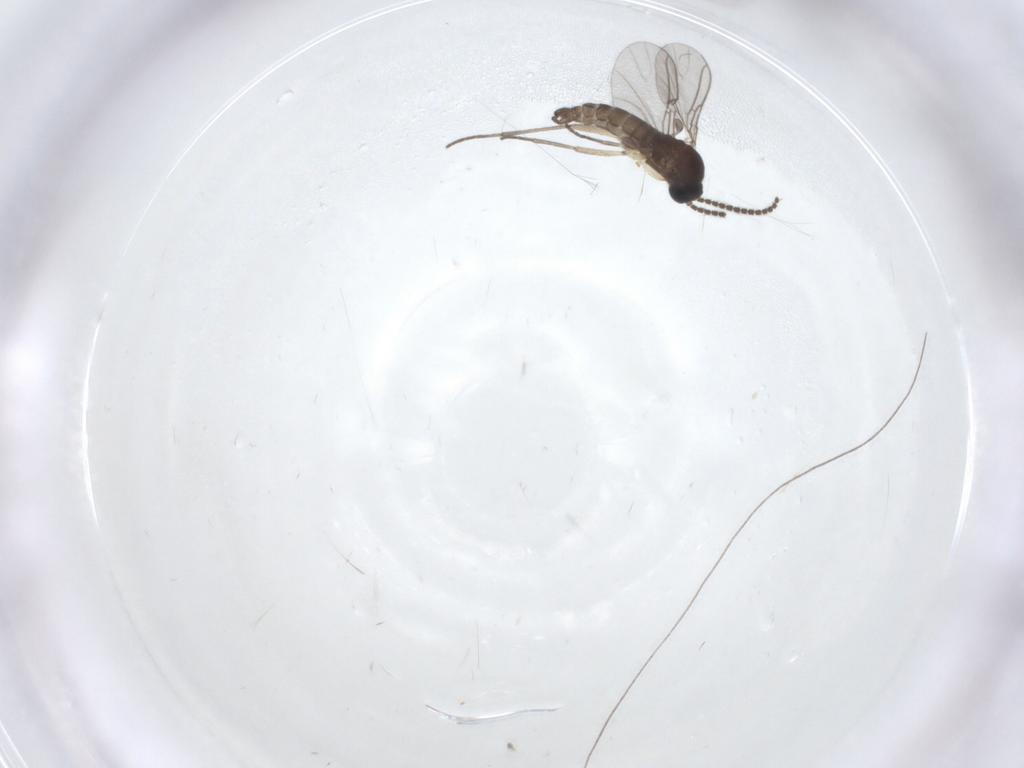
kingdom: Animalia
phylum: Arthropoda
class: Insecta
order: Diptera
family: Sciaridae
